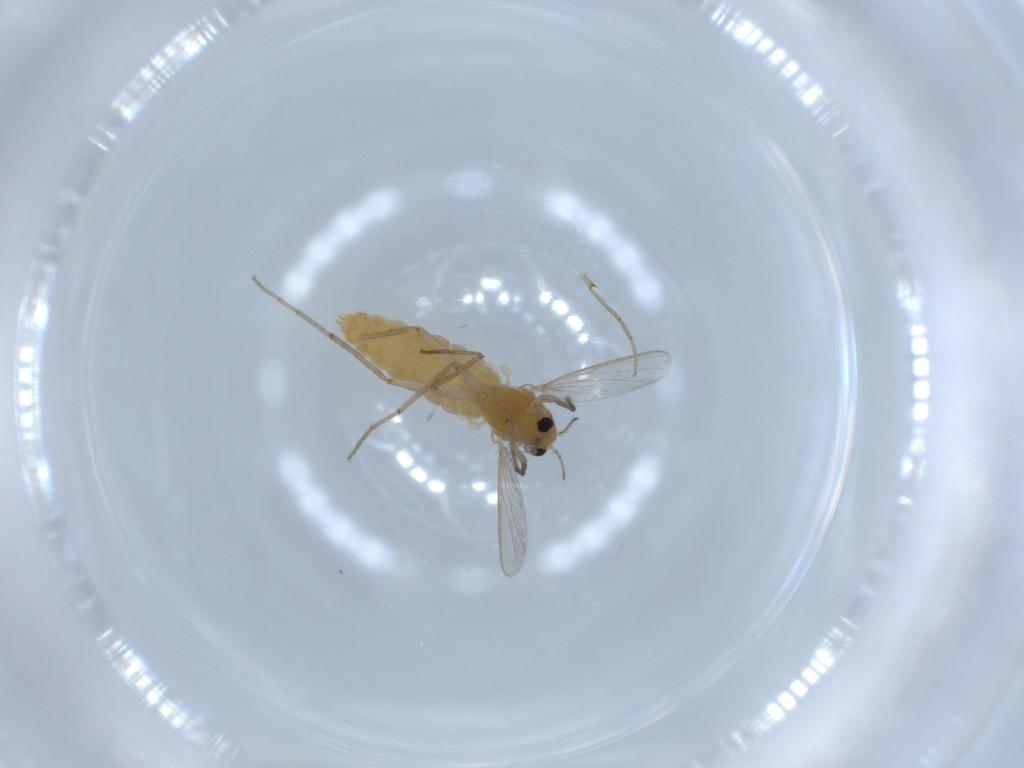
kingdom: Animalia
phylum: Arthropoda
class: Insecta
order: Diptera
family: Chironomidae
